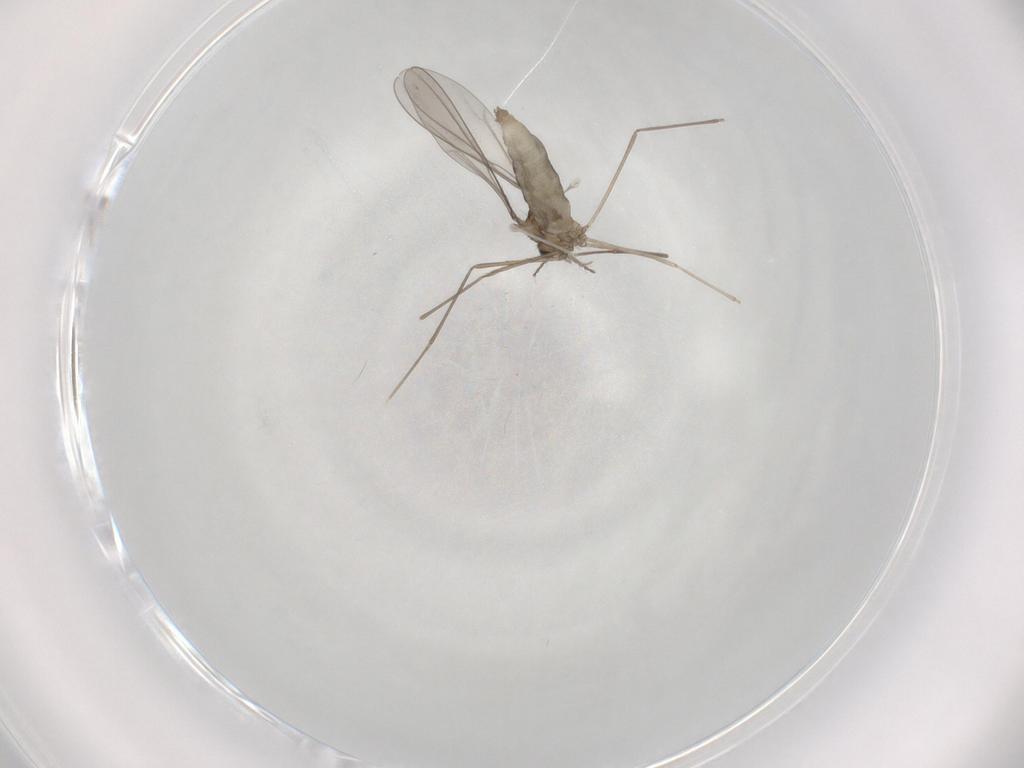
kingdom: Animalia
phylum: Arthropoda
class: Insecta
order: Diptera
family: Cecidomyiidae
